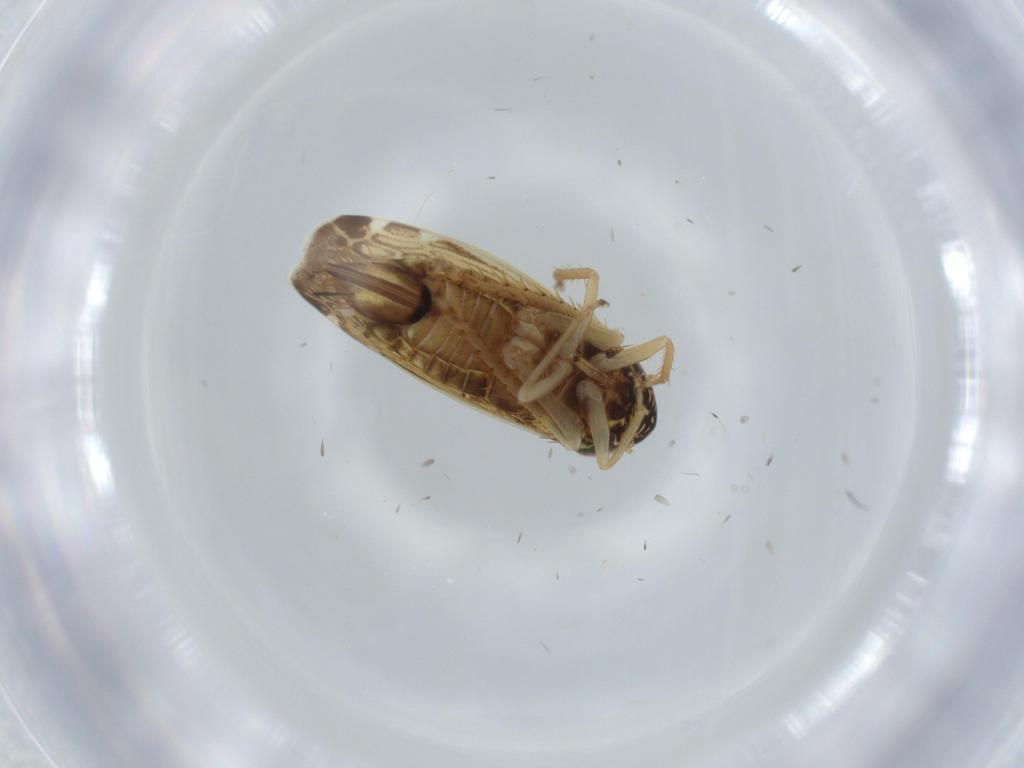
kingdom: Animalia
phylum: Arthropoda
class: Insecta
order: Hemiptera
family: Cicadellidae
